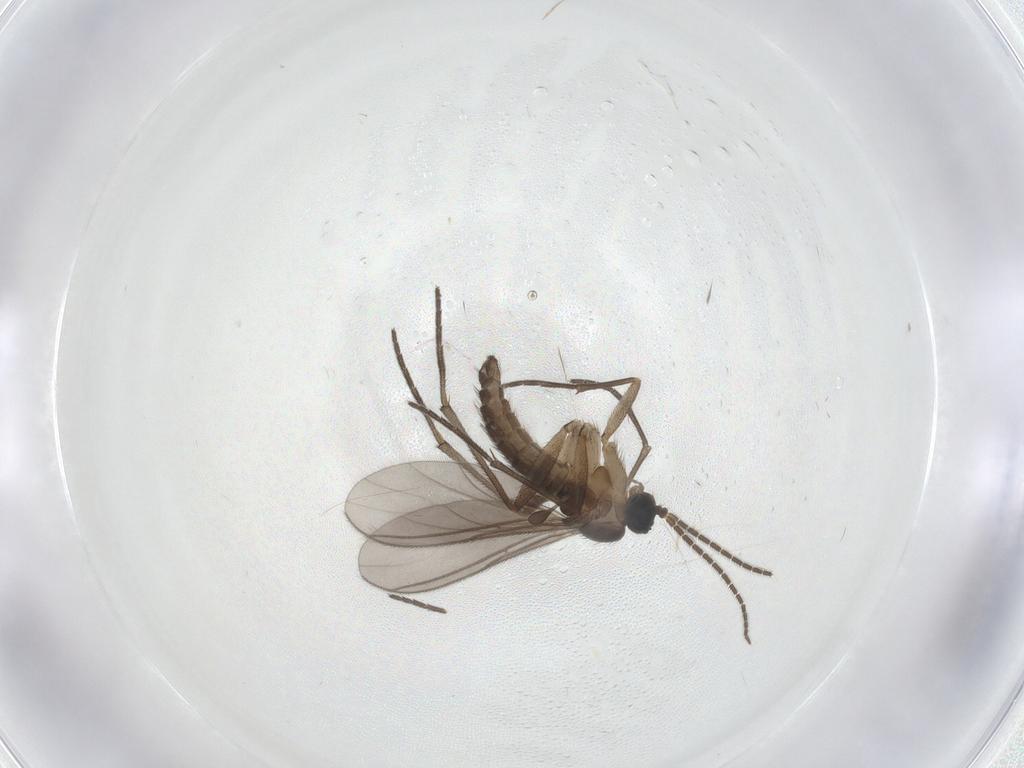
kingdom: Animalia
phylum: Arthropoda
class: Insecta
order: Diptera
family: Sciaridae
